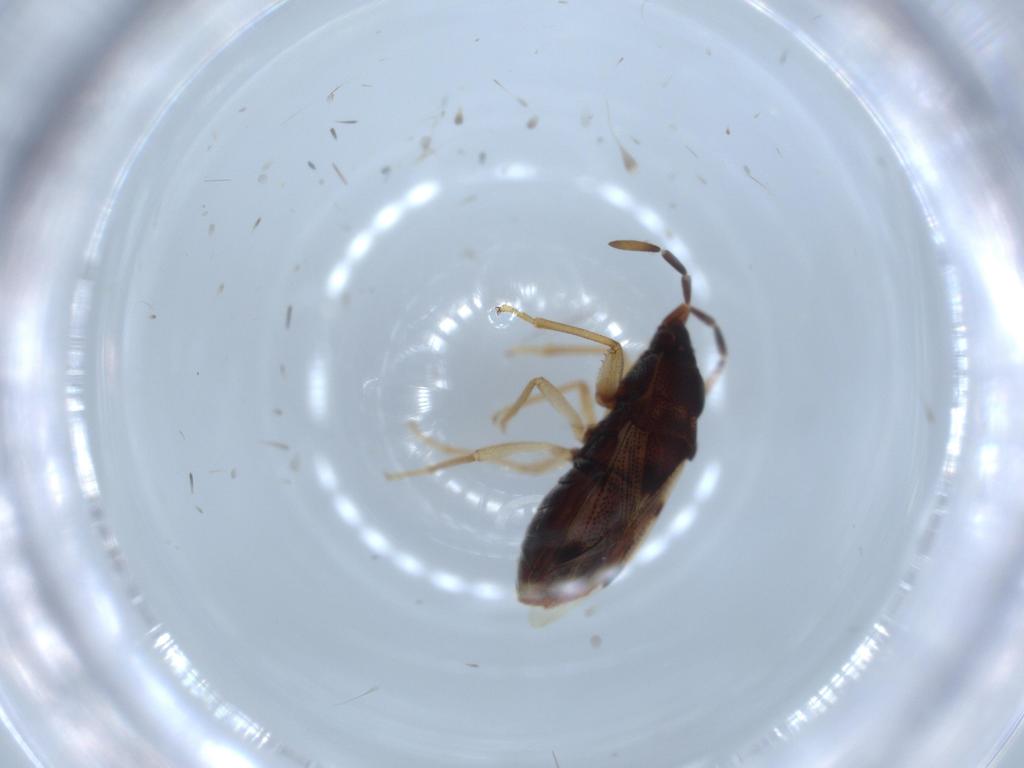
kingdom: Animalia
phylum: Arthropoda
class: Insecta
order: Hemiptera
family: Rhyparochromidae
